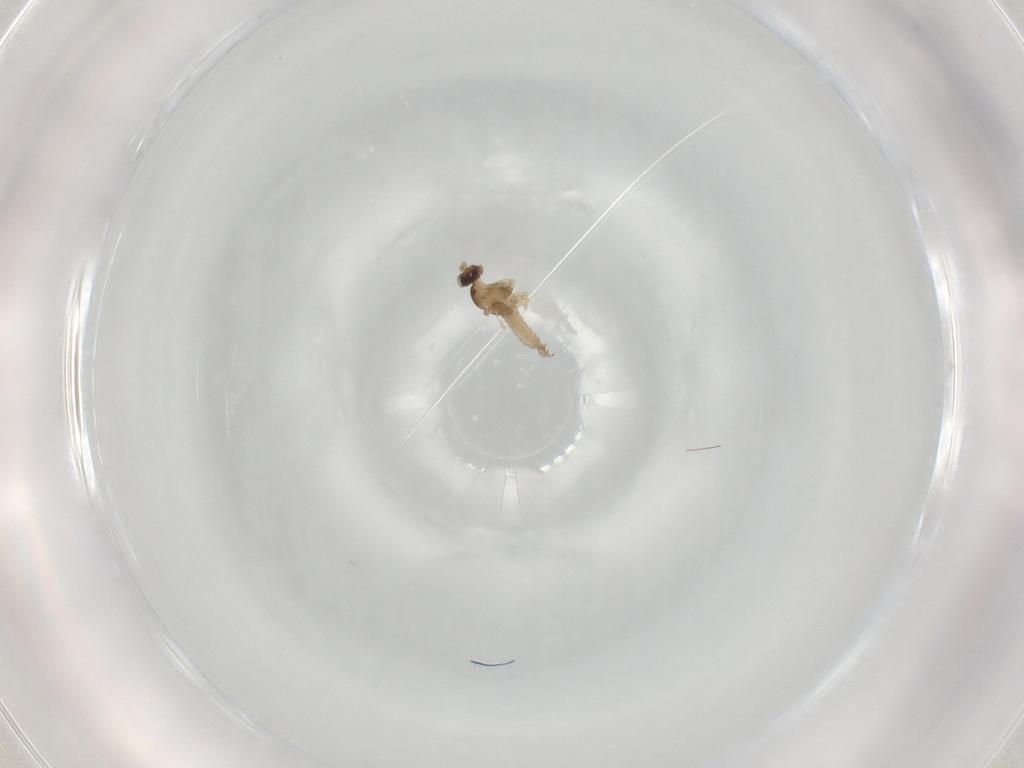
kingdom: Animalia
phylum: Arthropoda
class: Insecta
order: Diptera
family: Cecidomyiidae
